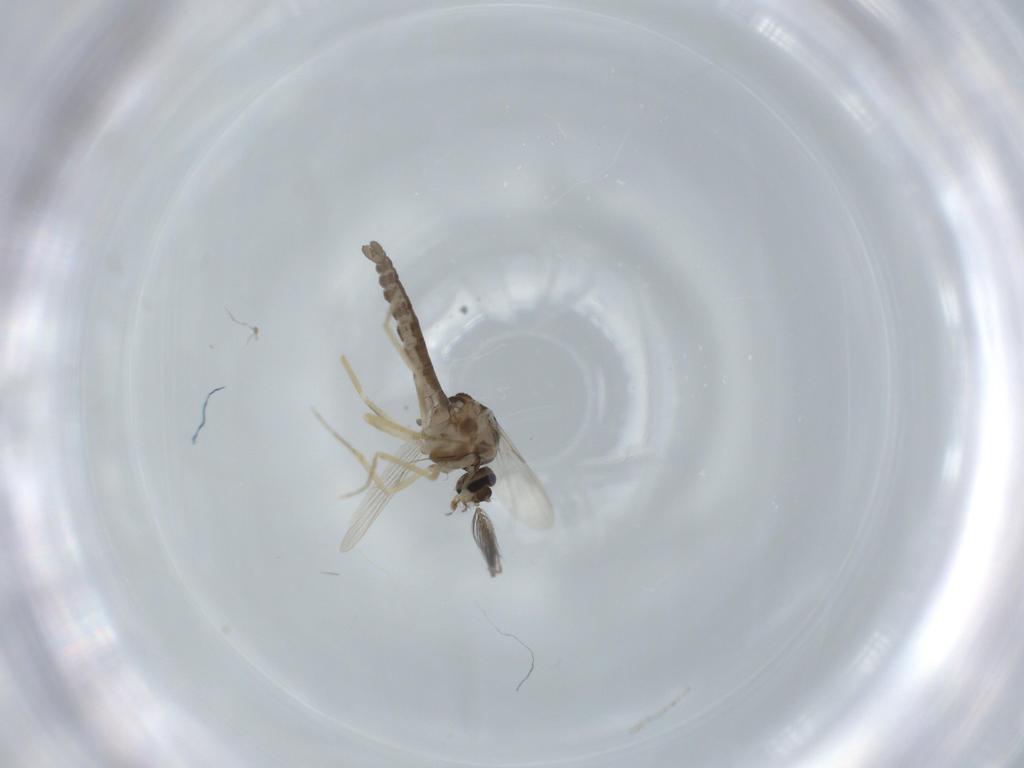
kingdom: Animalia
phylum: Arthropoda
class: Insecta
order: Diptera
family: Ceratopogonidae
